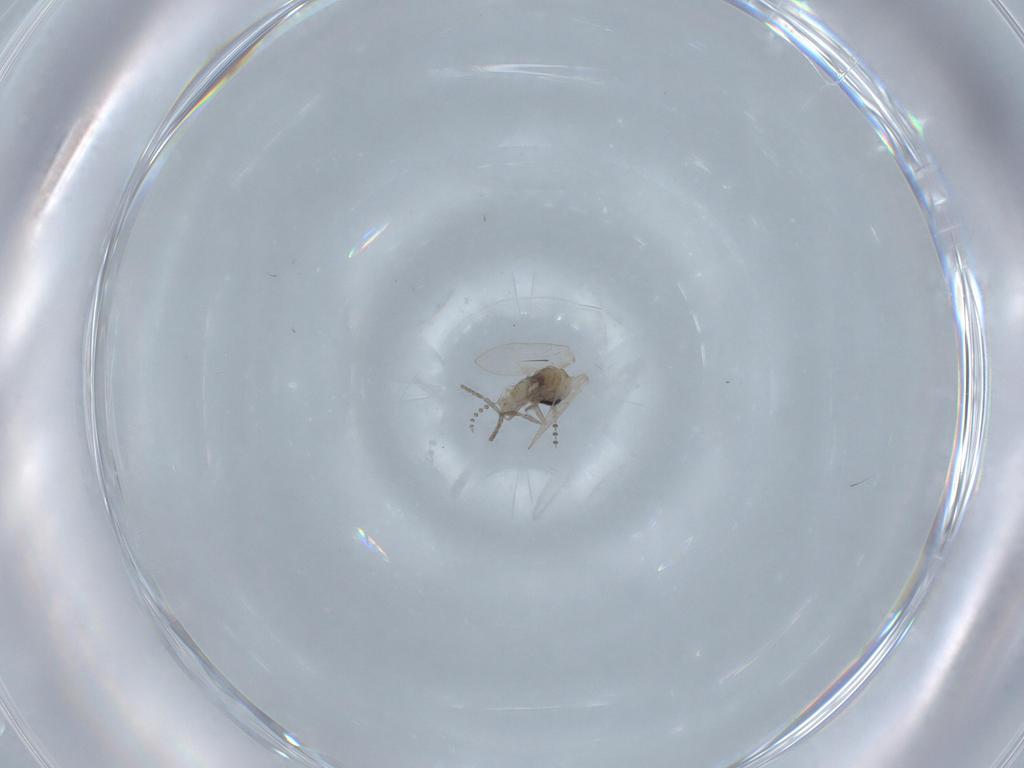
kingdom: Animalia
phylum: Arthropoda
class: Insecta
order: Diptera
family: Psychodidae
